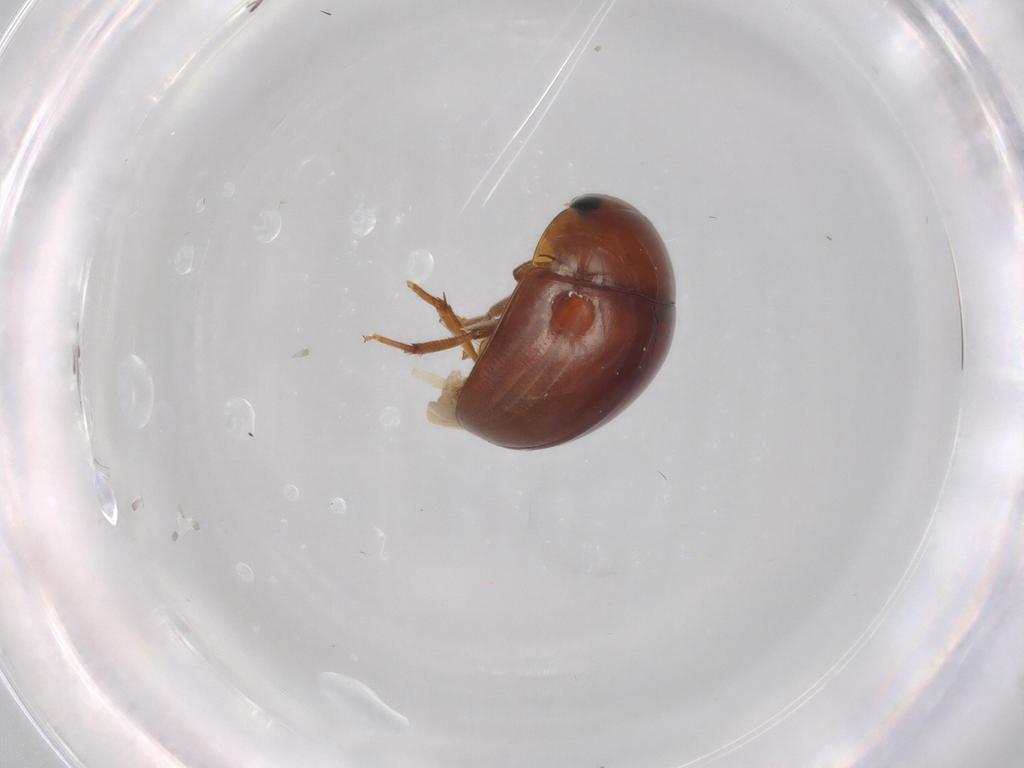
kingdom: Animalia
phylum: Arthropoda
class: Insecta
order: Coleoptera
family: Phalacridae
